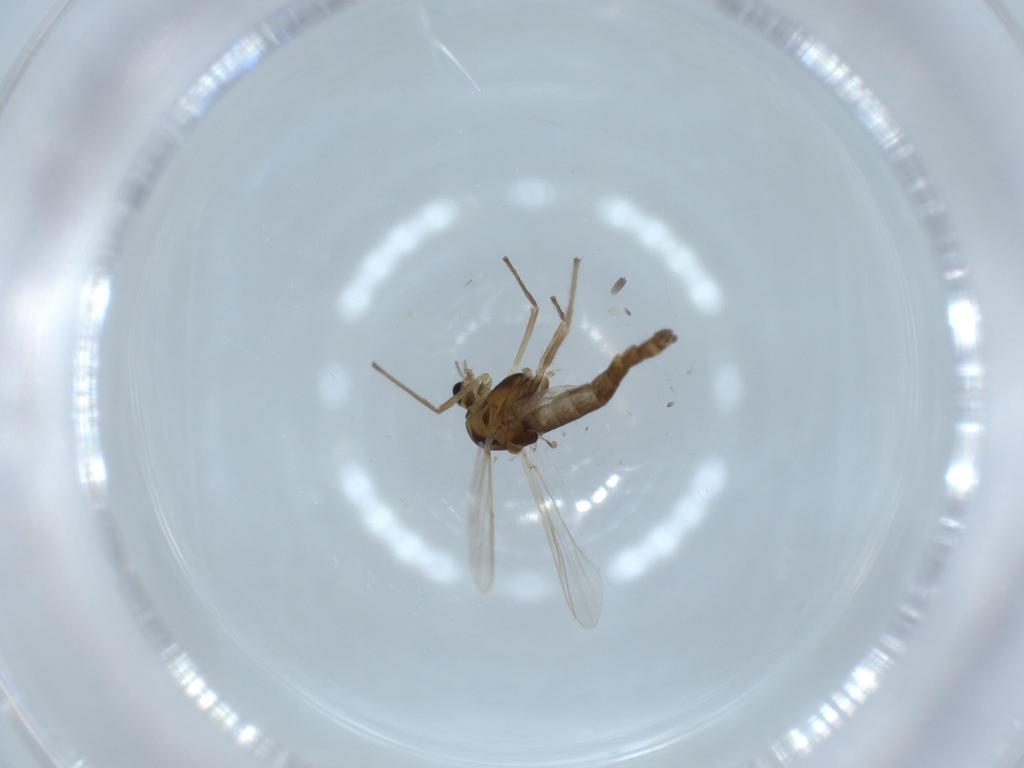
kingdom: Animalia
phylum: Arthropoda
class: Insecta
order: Diptera
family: Chironomidae
